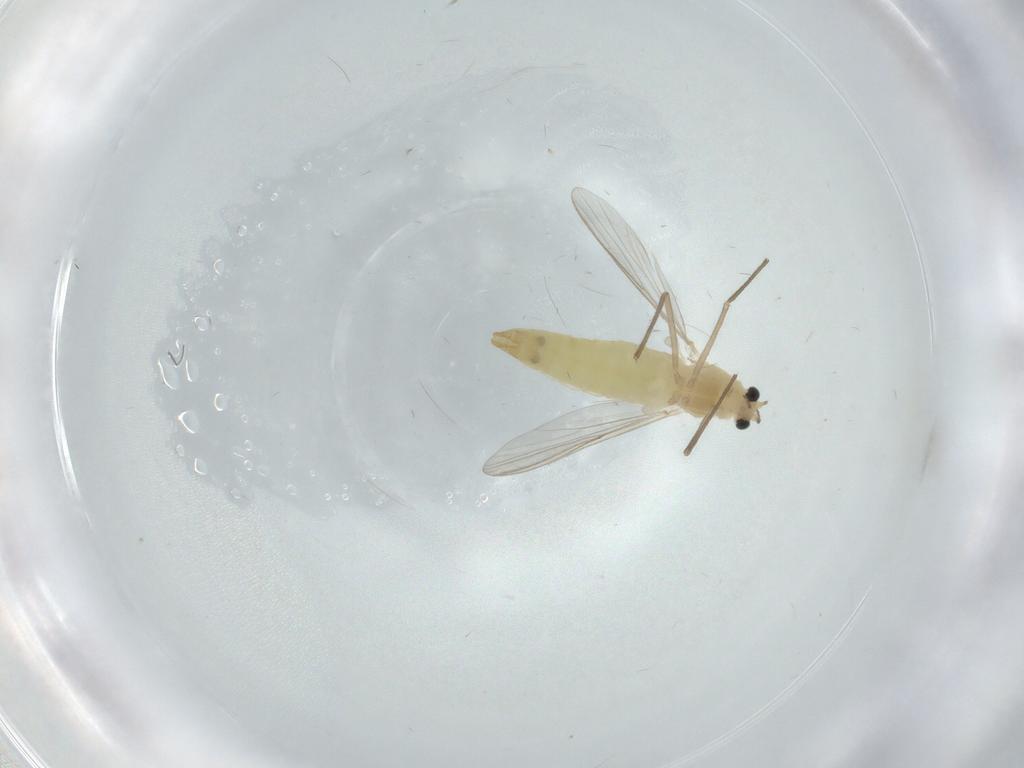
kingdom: Animalia
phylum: Arthropoda
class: Insecta
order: Diptera
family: Chironomidae
